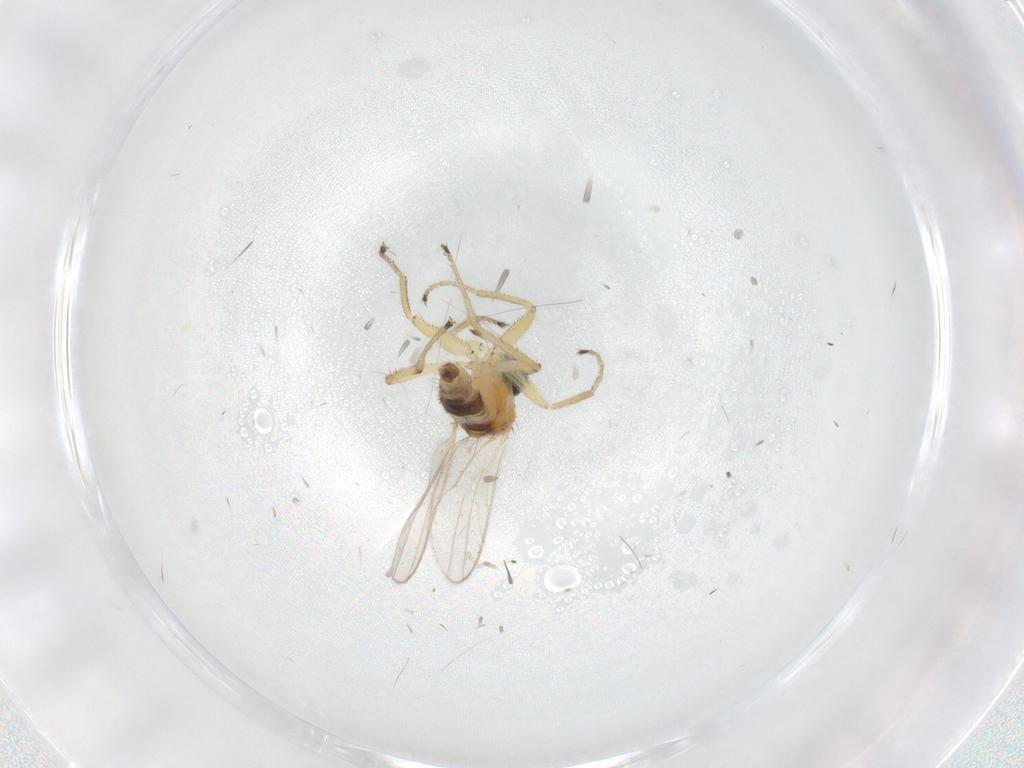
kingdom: Animalia
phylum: Arthropoda
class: Insecta
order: Diptera
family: Hybotidae
